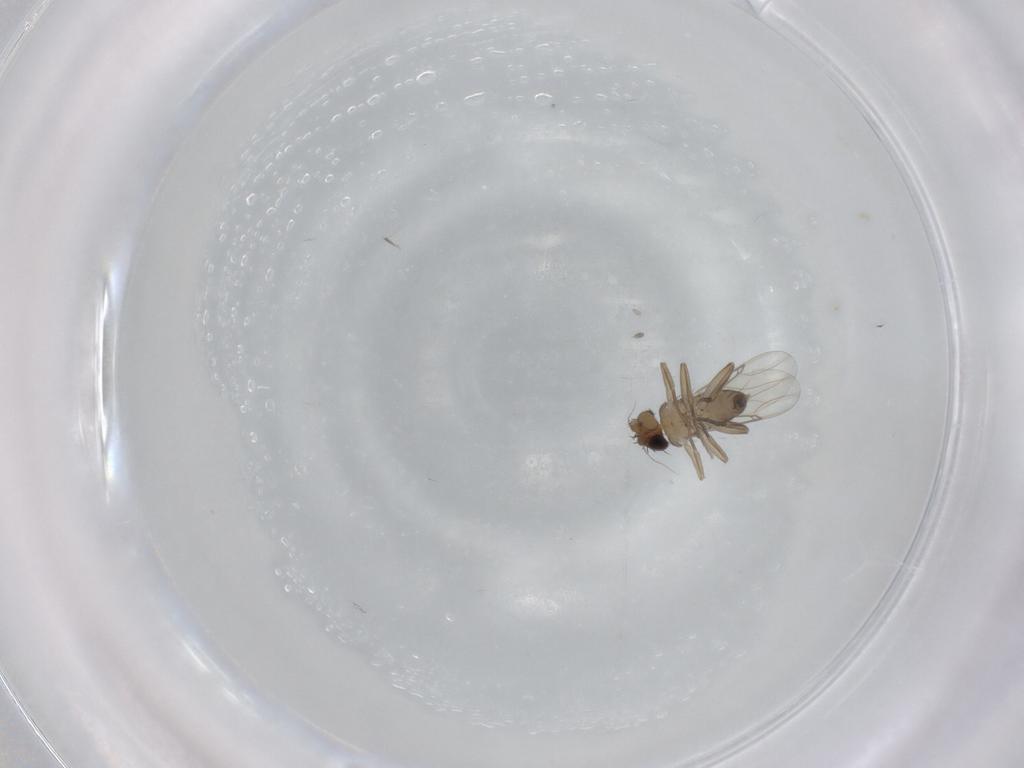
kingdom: Animalia
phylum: Arthropoda
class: Insecta
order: Diptera
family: Phoridae
